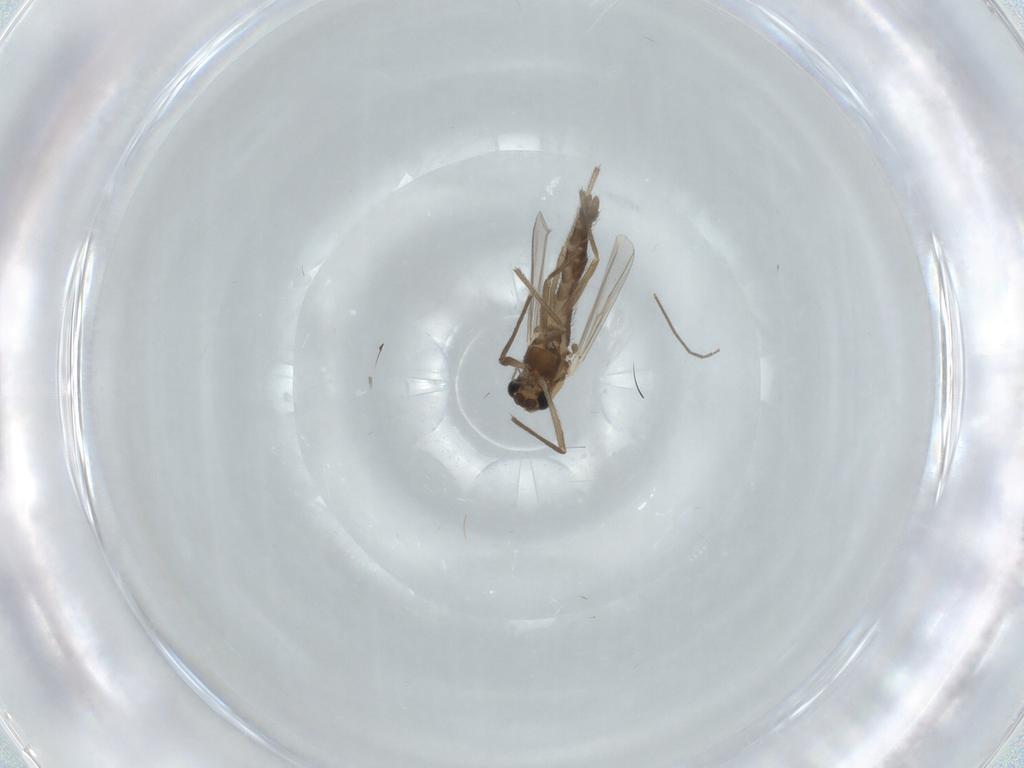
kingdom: Animalia
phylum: Arthropoda
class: Insecta
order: Diptera
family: Chironomidae
